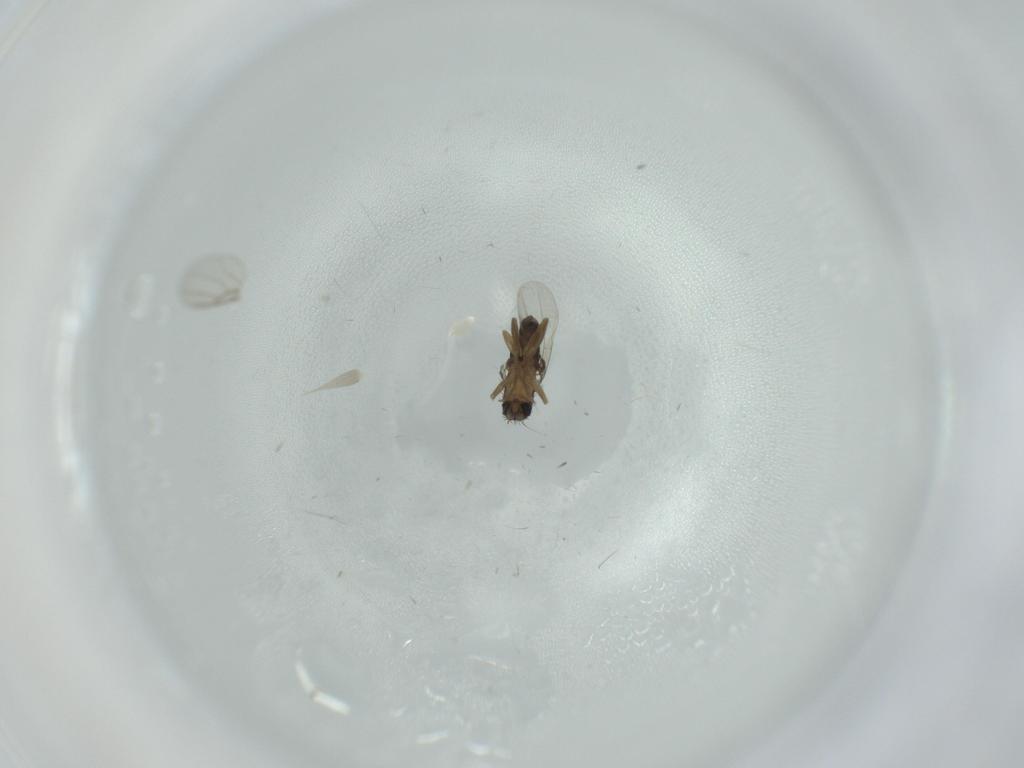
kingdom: Animalia
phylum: Arthropoda
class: Insecta
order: Diptera
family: Phoridae
